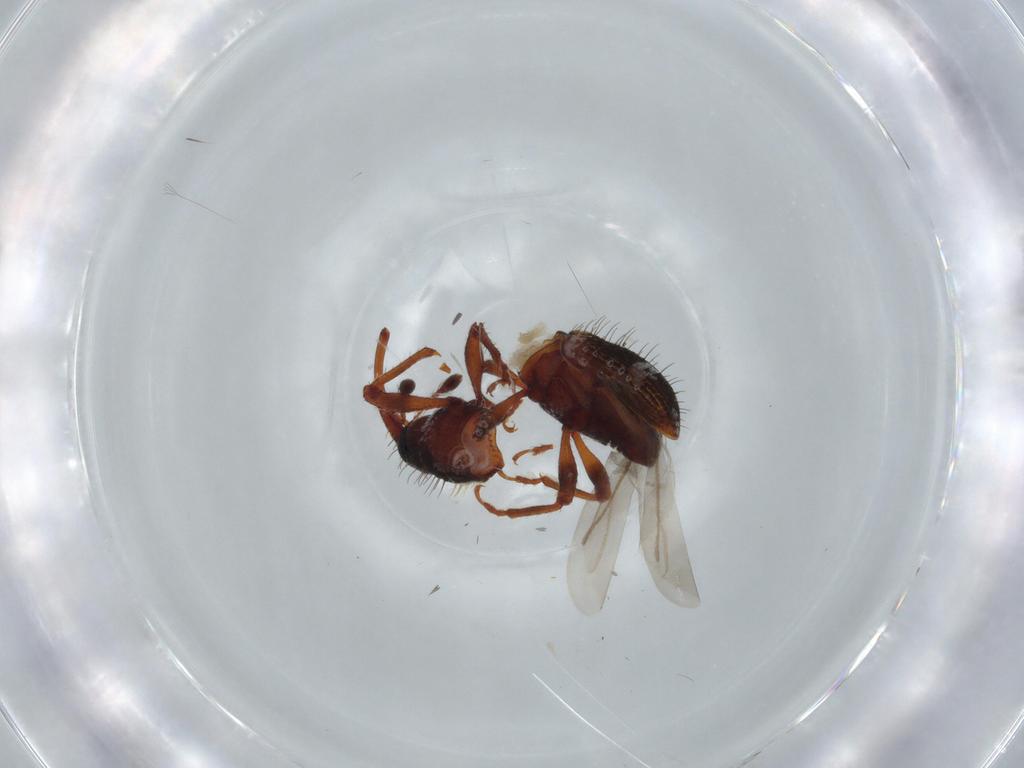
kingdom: Animalia
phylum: Arthropoda
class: Insecta
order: Coleoptera
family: Curculionidae
